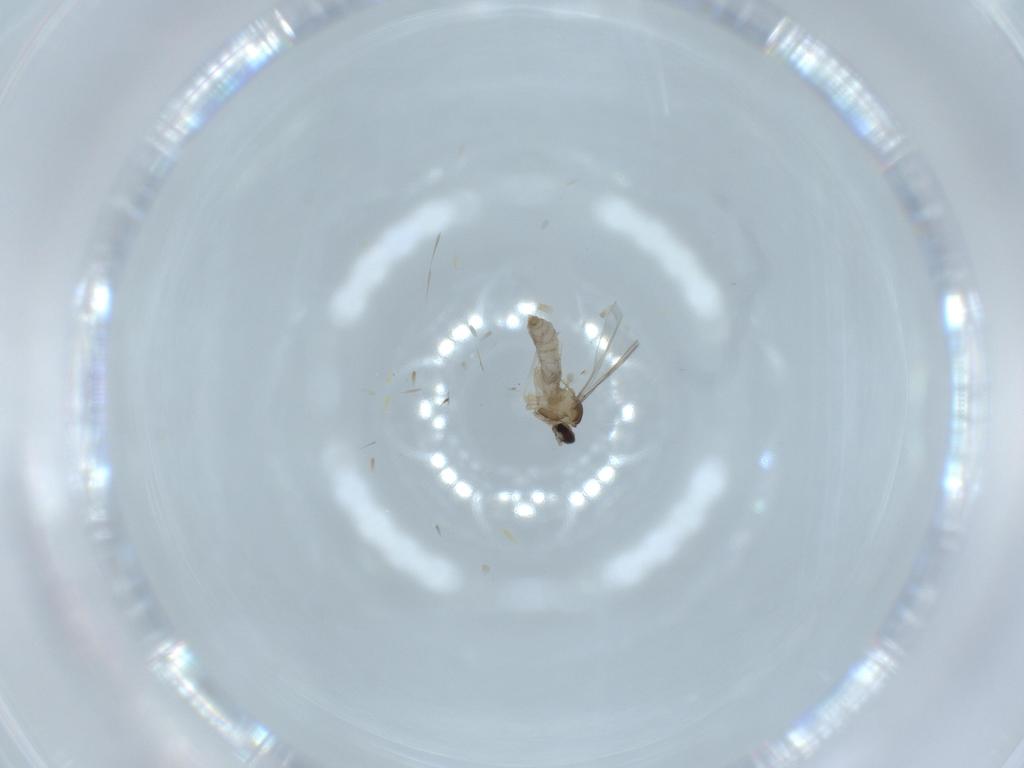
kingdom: Animalia
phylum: Arthropoda
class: Insecta
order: Diptera
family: Cecidomyiidae
